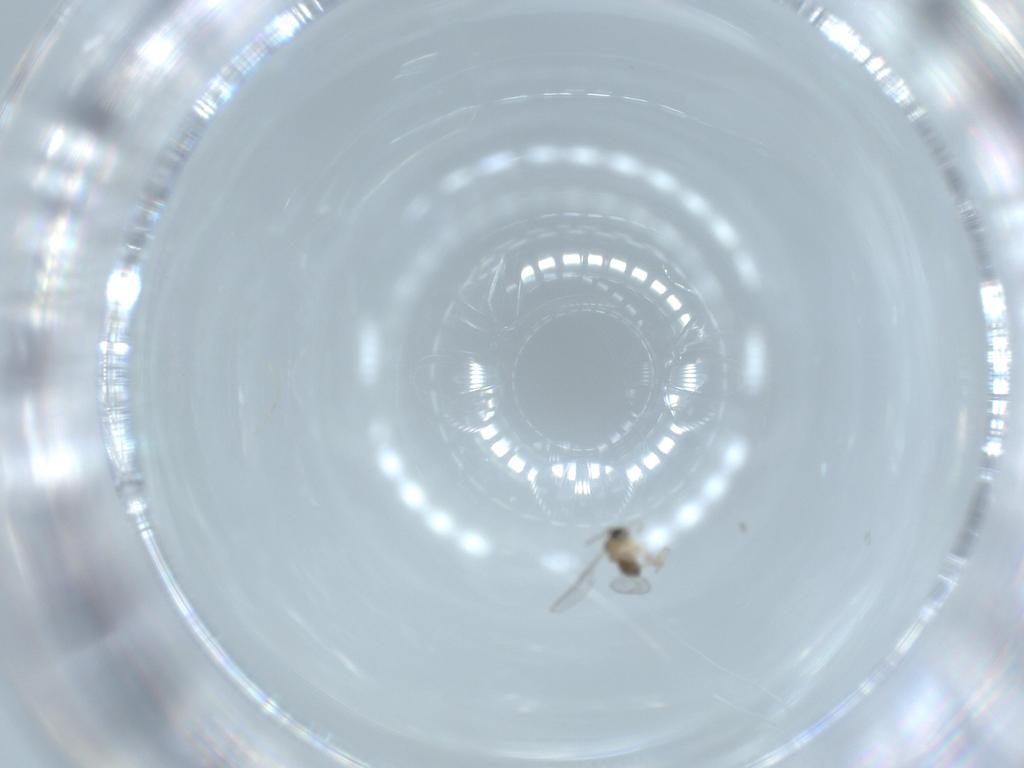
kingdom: Animalia
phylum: Arthropoda
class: Insecta
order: Diptera
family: Cecidomyiidae
